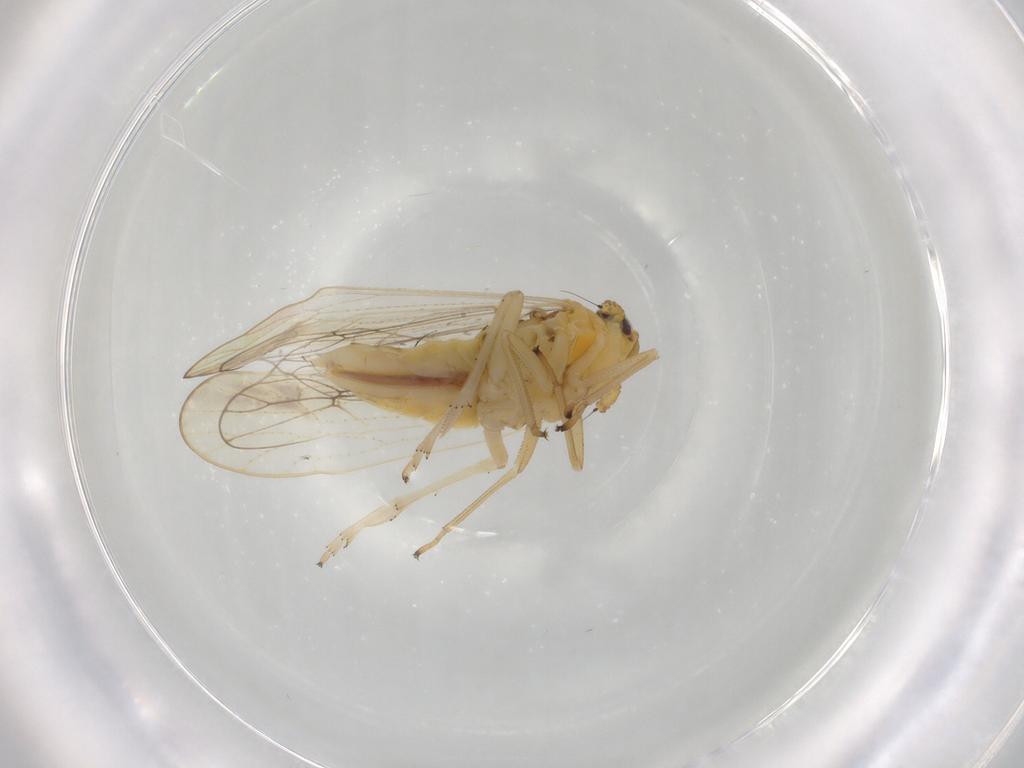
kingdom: Animalia
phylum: Arthropoda
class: Insecta
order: Hemiptera
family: Delphacidae
